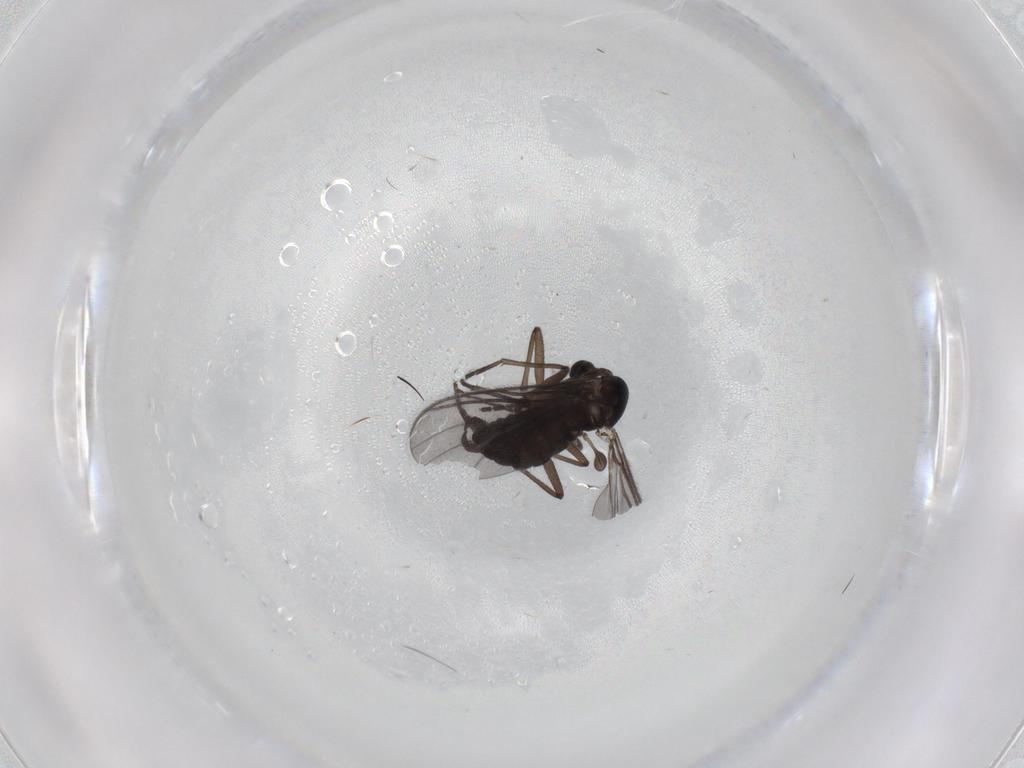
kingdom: Animalia
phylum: Arthropoda
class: Insecta
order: Diptera
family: Sciaridae
